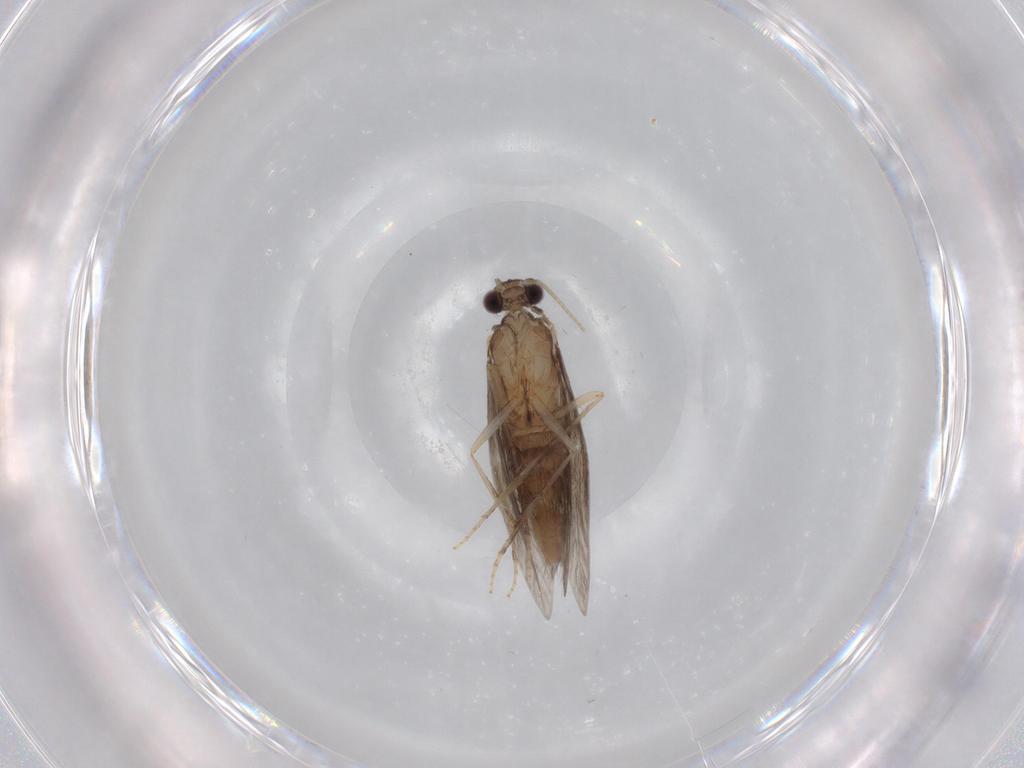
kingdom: Animalia
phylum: Arthropoda
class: Insecta
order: Trichoptera
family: Hydroptilidae
